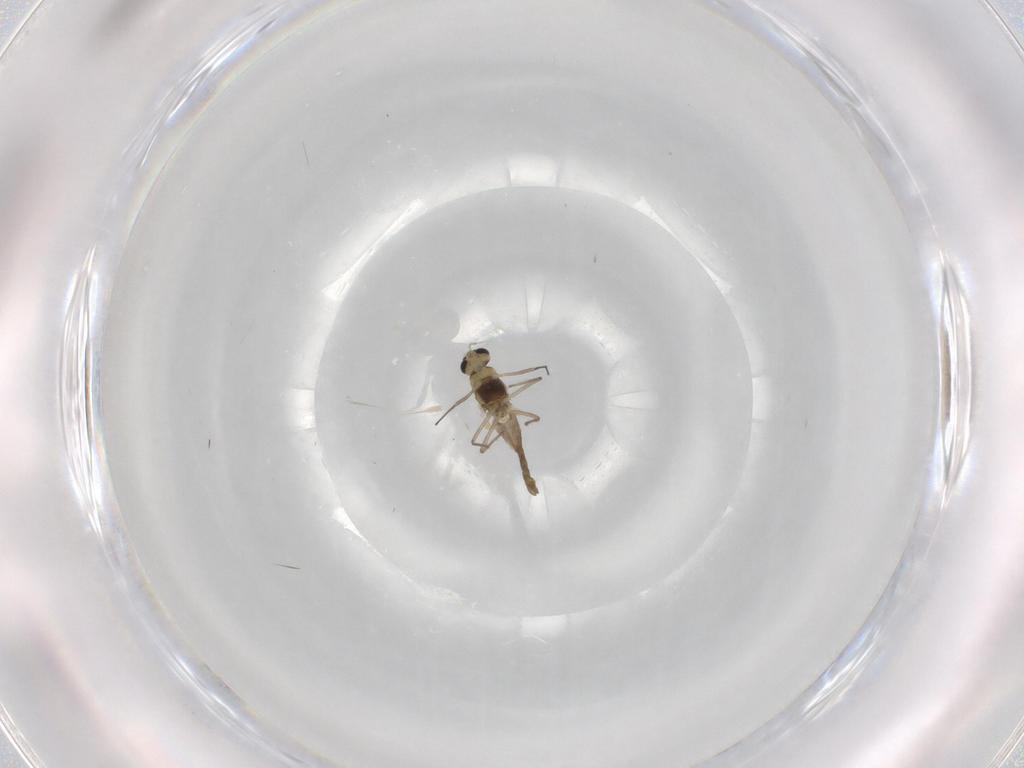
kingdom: Animalia
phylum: Arthropoda
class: Insecta
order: Diptera
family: Chironomidae
